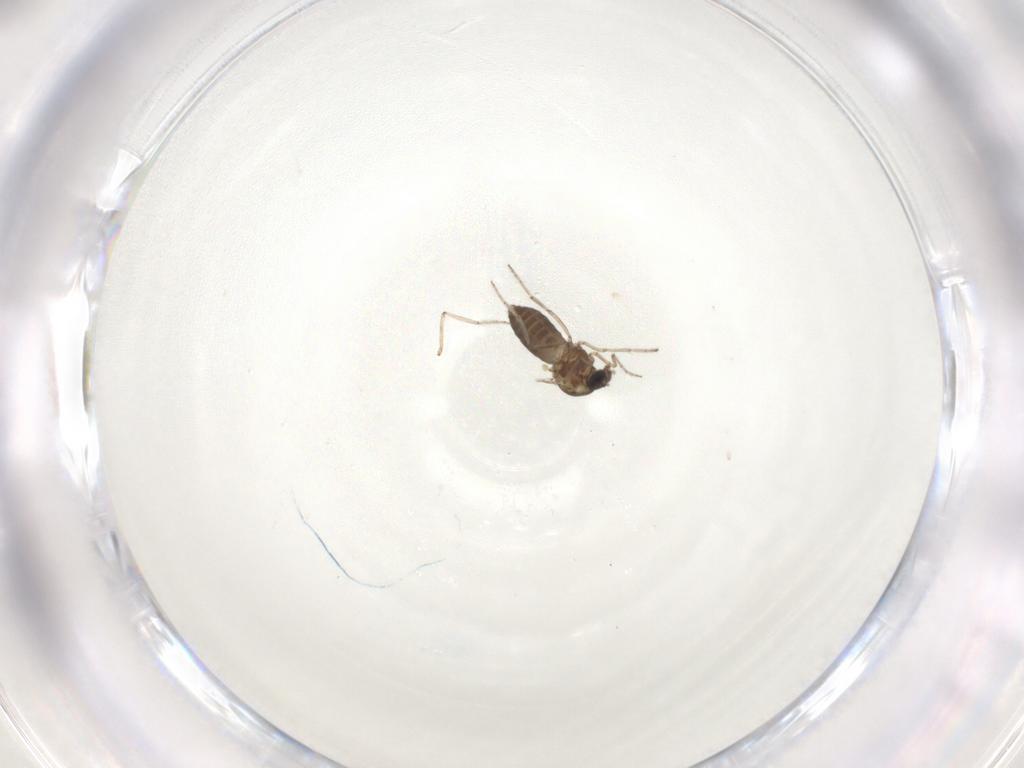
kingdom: Animalia
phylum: Arthropoda
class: Insecta
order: Diptera
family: Ceratopogonidae
